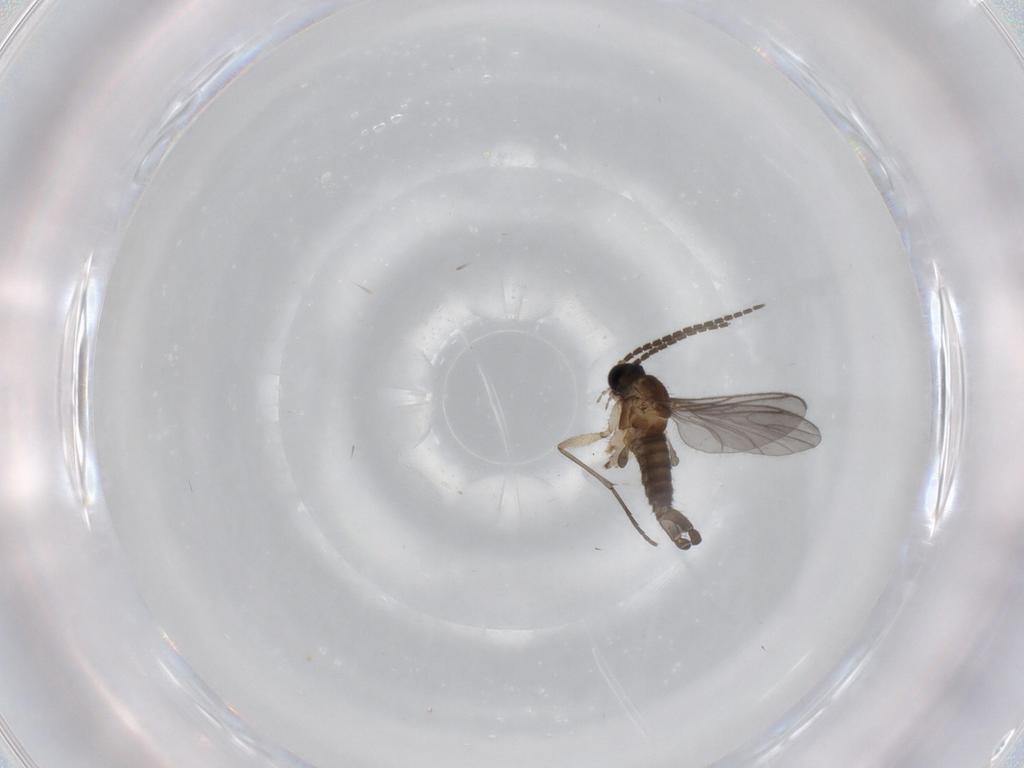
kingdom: Animalia
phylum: Arthropoda
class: Insecta
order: Diptera
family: Sciaridae
